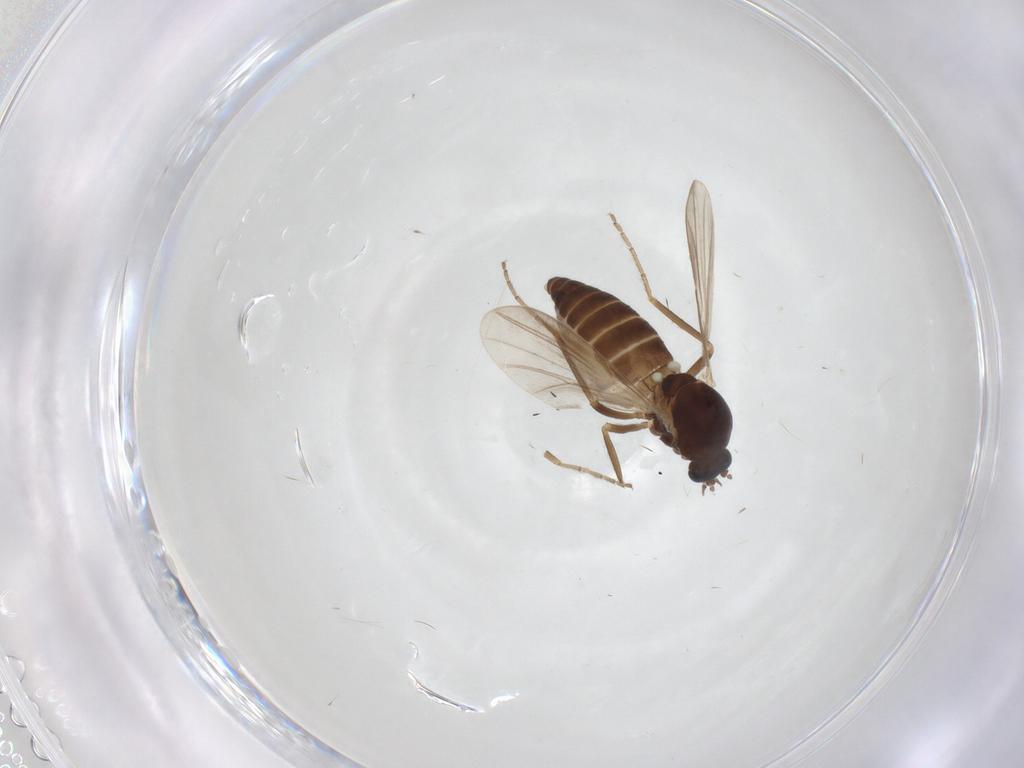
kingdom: Animalia
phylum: Arthropoda
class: Insecta
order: Diptera
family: Ceratopogonidae
